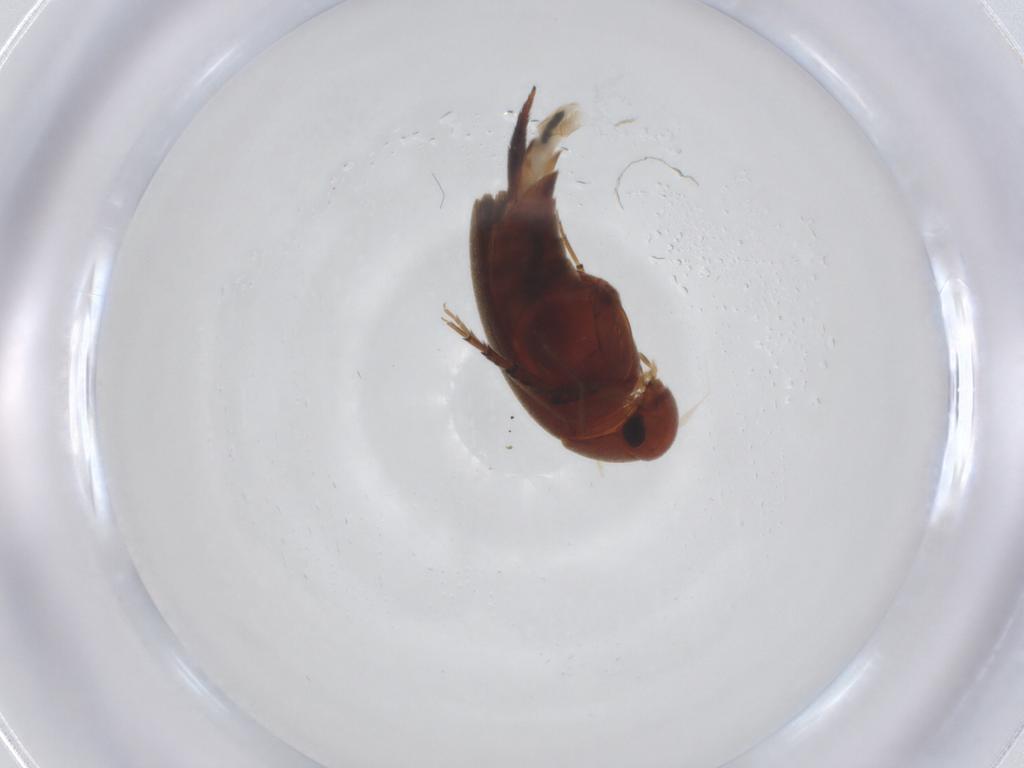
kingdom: Animalia
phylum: Arthropoda
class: Insecta
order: Coleoptera
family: Mordellidae
